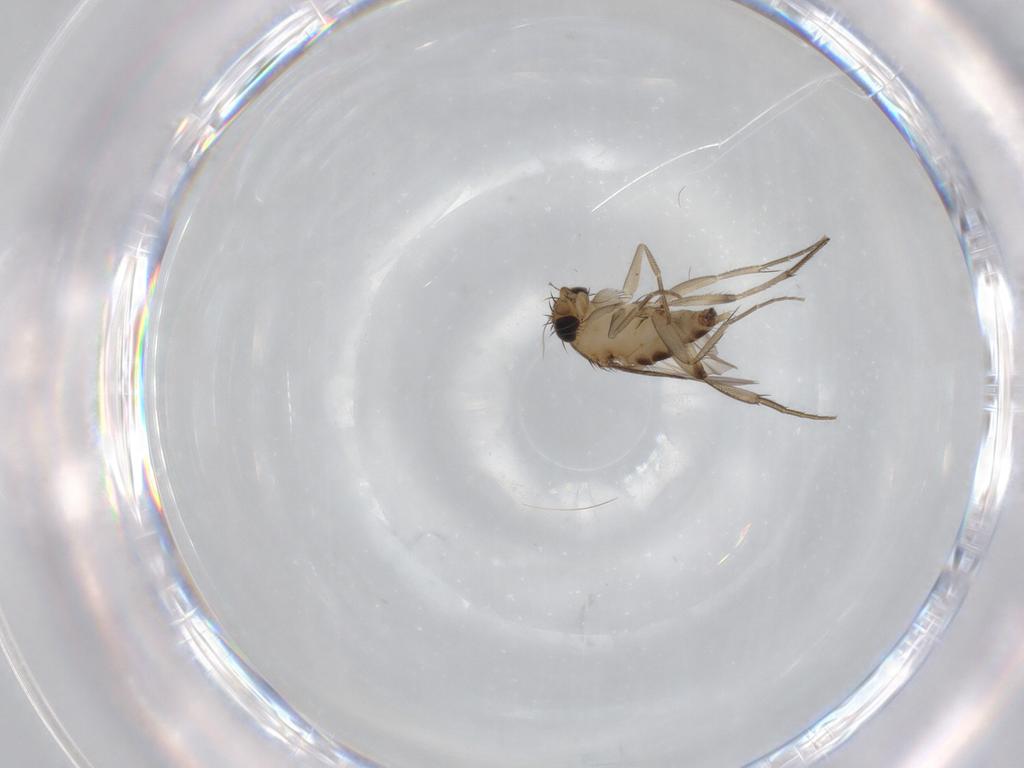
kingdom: Animalia
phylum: Arthropoda
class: Insecta
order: Diptera
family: Phoridae
